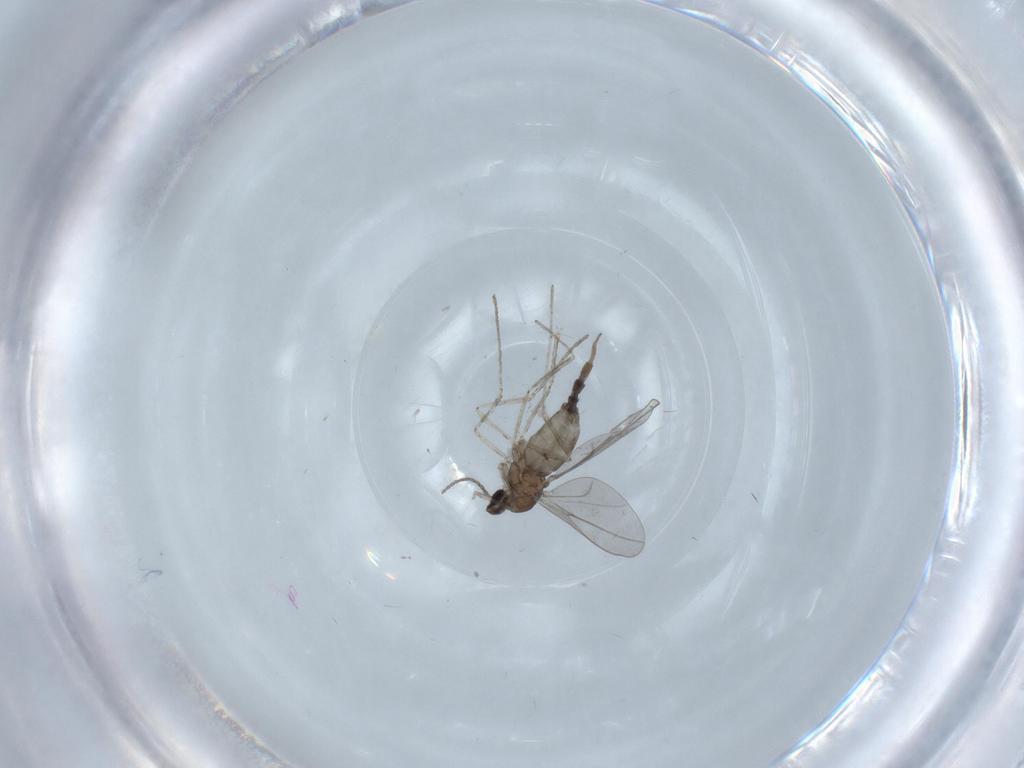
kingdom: Animalia
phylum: Arthropoda
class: Insecta
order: Diptera
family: Cecidomyiidae
